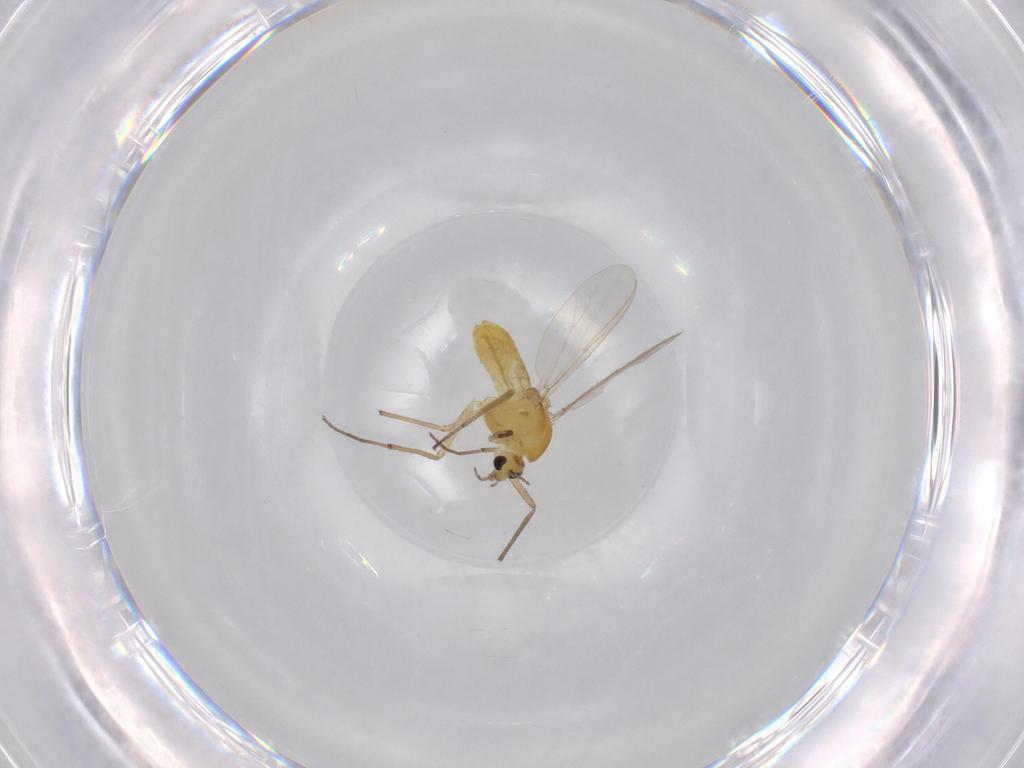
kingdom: Animalia
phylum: Arthropoda
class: Insecta
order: Diptera
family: Chironomidae
